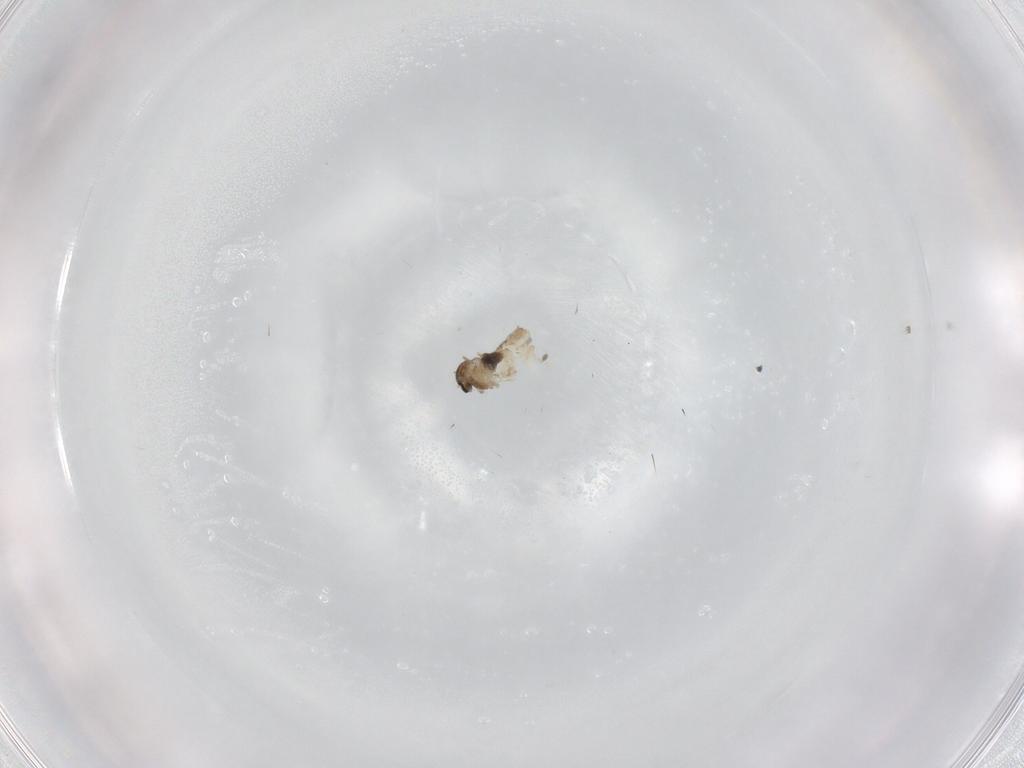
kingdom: Animalia
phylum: Arthropoda
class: Insecta
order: Diptera
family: Cecidomyiidae
